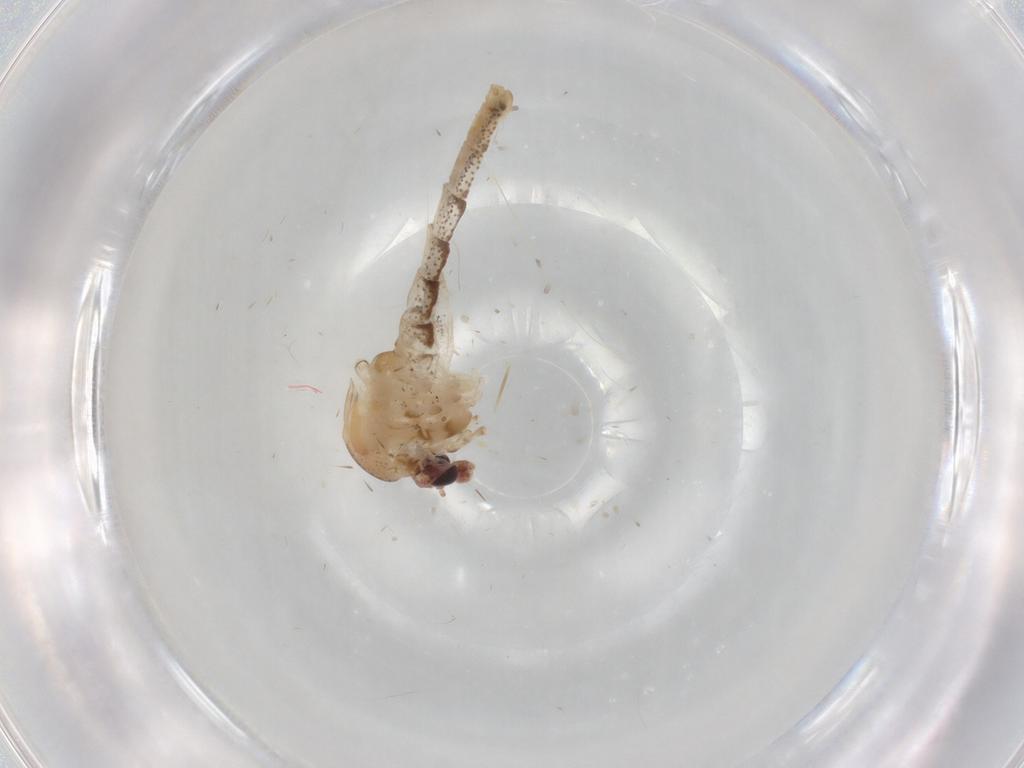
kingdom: Animalia
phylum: Arthropoda
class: Insecta
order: Diptera
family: Chaoboridae
